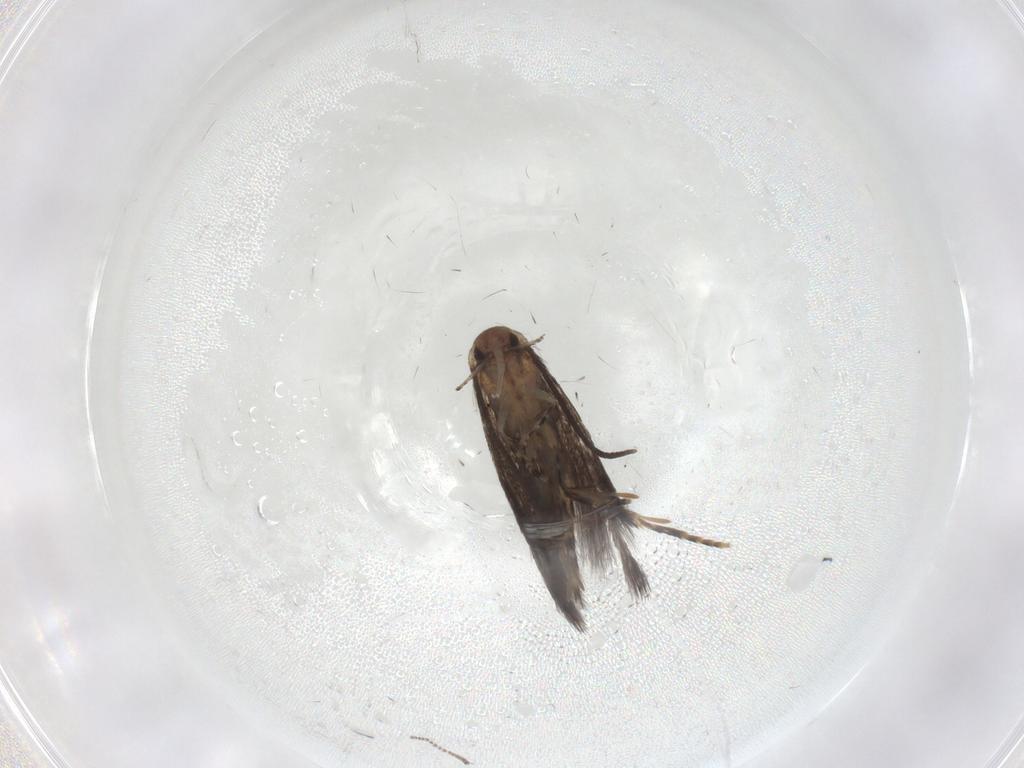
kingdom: Animalia
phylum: Arthropoda
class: Insecta
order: Lepidoptera
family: Elachistidae
